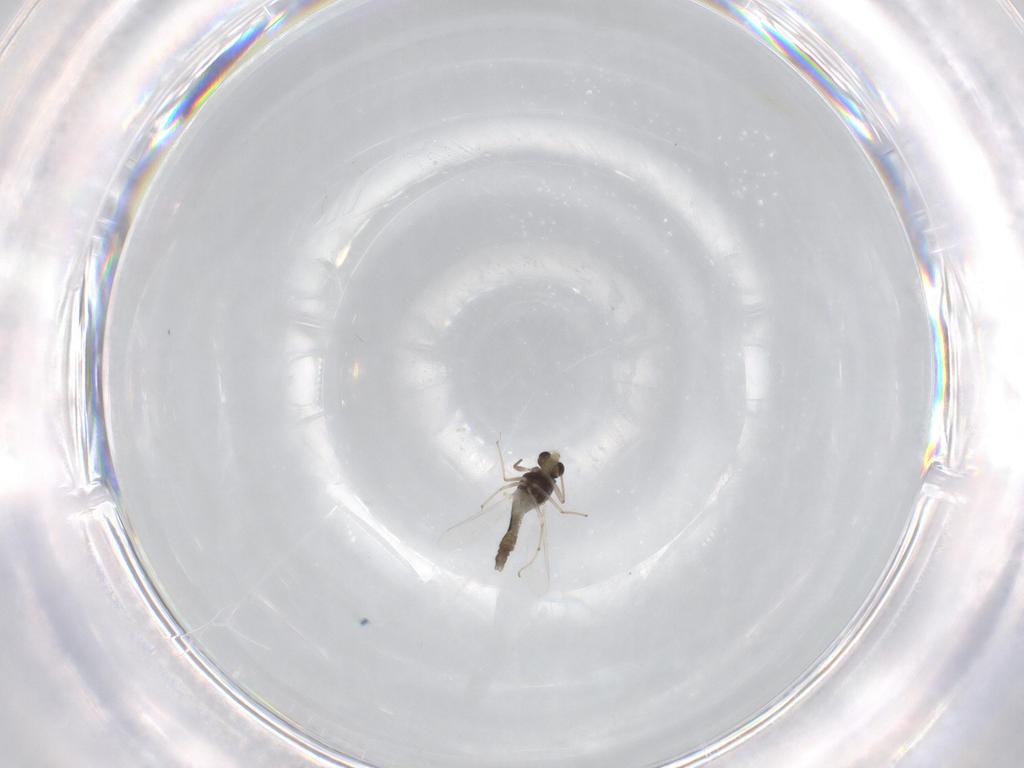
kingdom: Animalia
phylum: Arthropoda
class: Insecta
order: Diptera
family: Chironomidae
